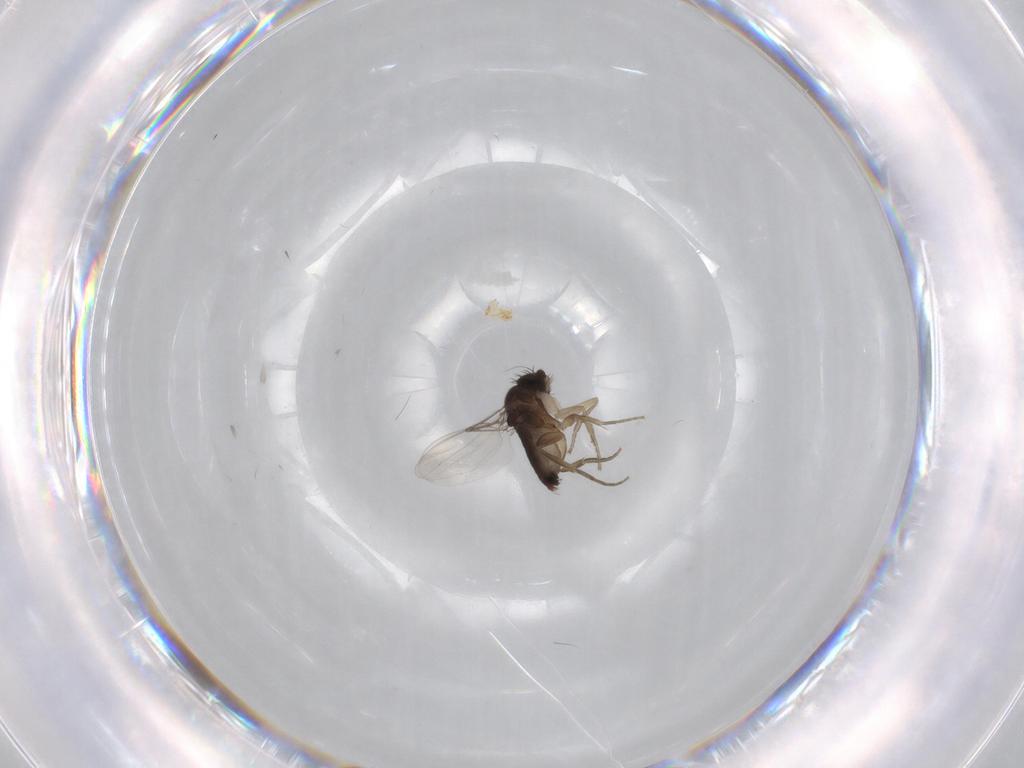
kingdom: Animalia
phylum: Arthropoda
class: Insecta
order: Diptera
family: Phoridae
